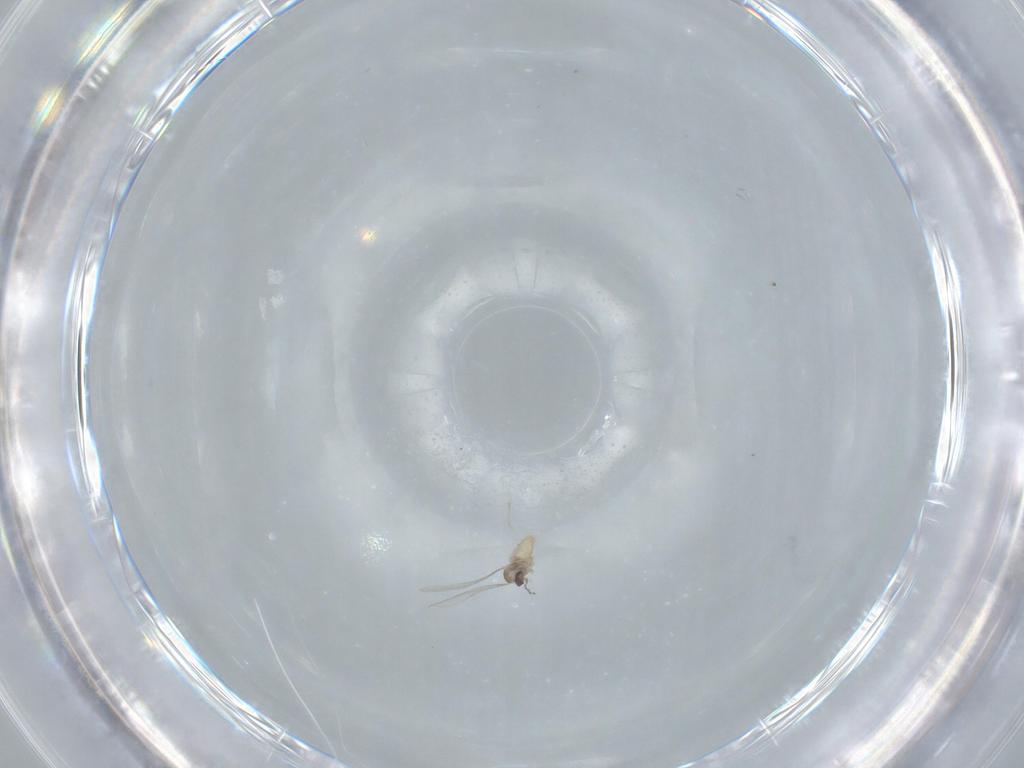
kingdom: Animalia
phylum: Arthropoda
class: Insecta
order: Diptera
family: Cecidomyiidae
